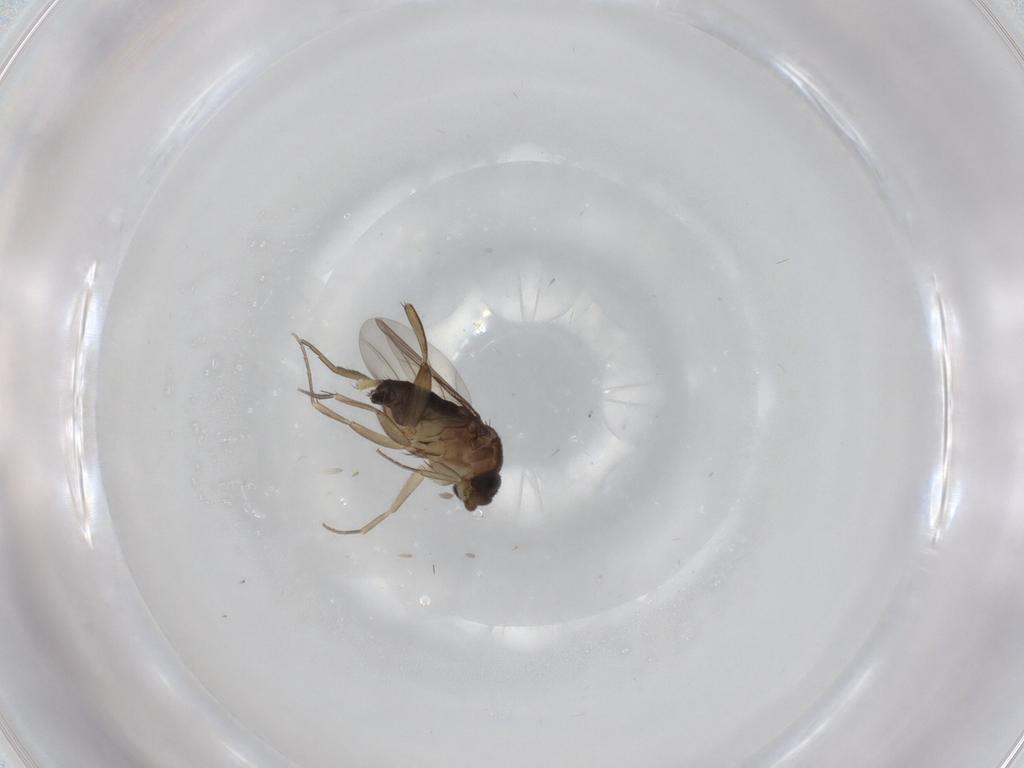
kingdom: Animalia
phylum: Arthropoda
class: Insecta
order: Diptera
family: Phoridae
